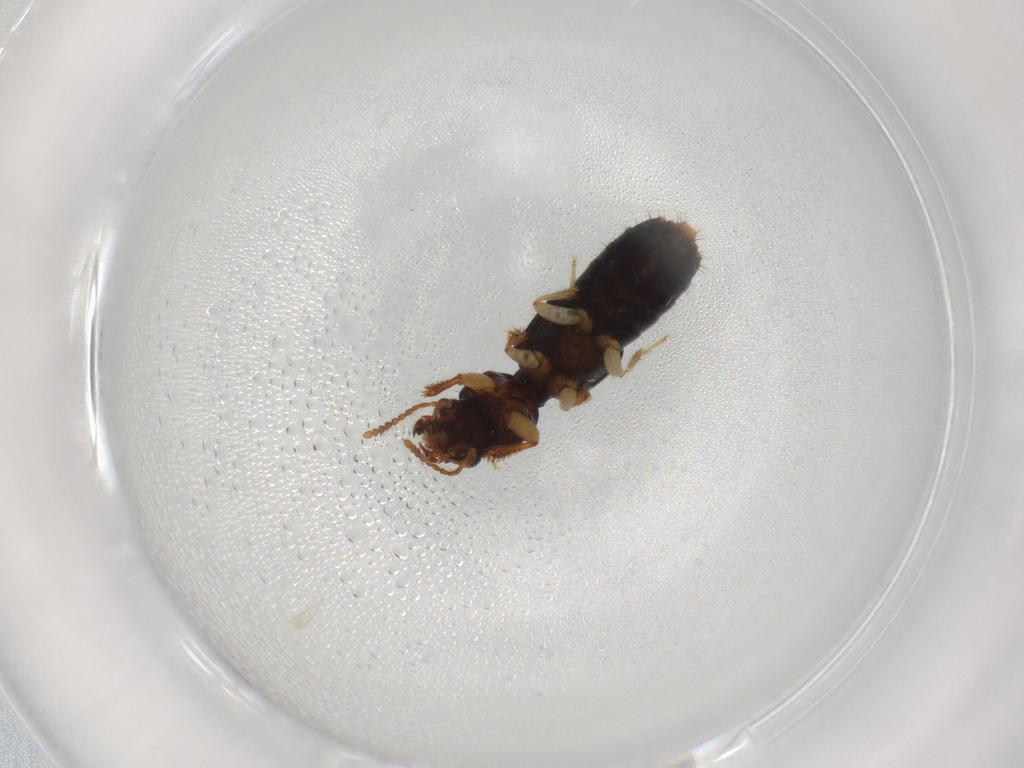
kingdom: Animalia
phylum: Arthropoda
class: Insecta
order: Coleoptera
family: Staphylinidae
